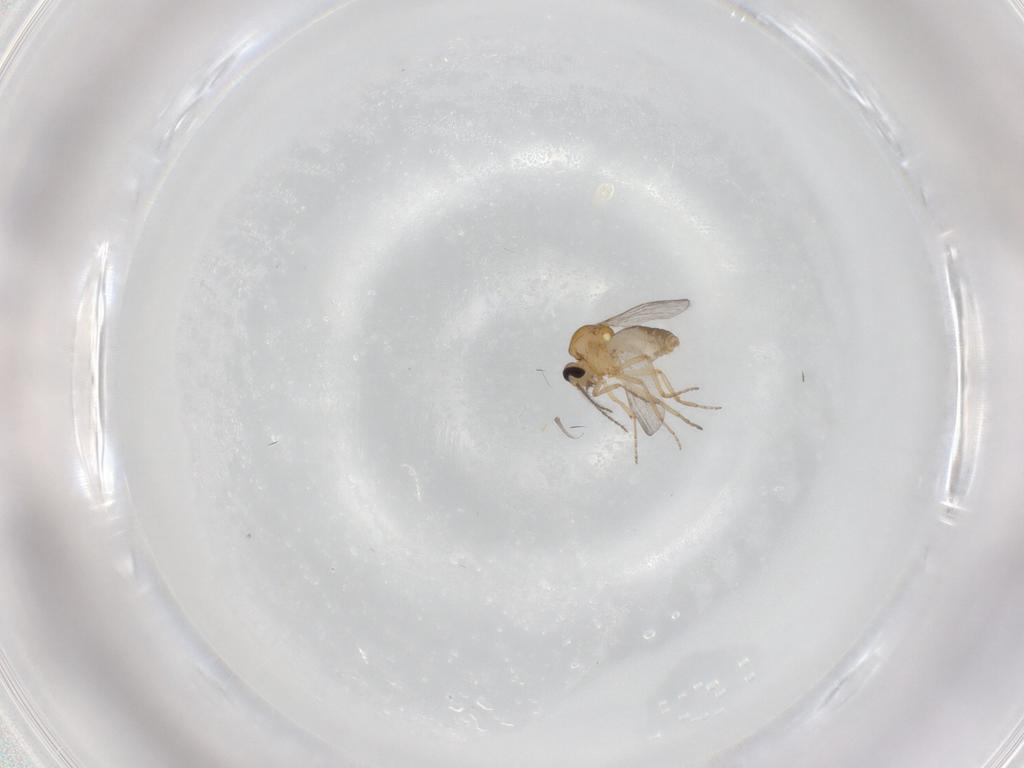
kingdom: Animalia
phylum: Arthropoda
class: Insecta
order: Diptera
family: Ceratopogonidae
